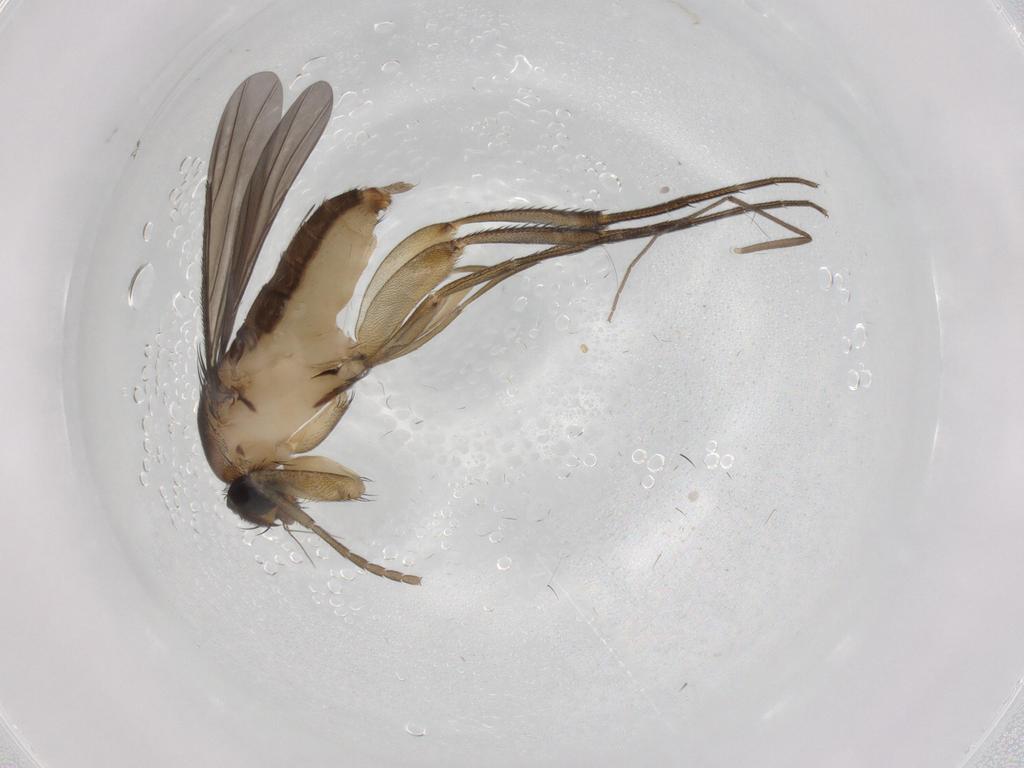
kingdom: Animalia
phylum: Arthropoda
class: Insecta
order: Diptera
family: Phoridae
